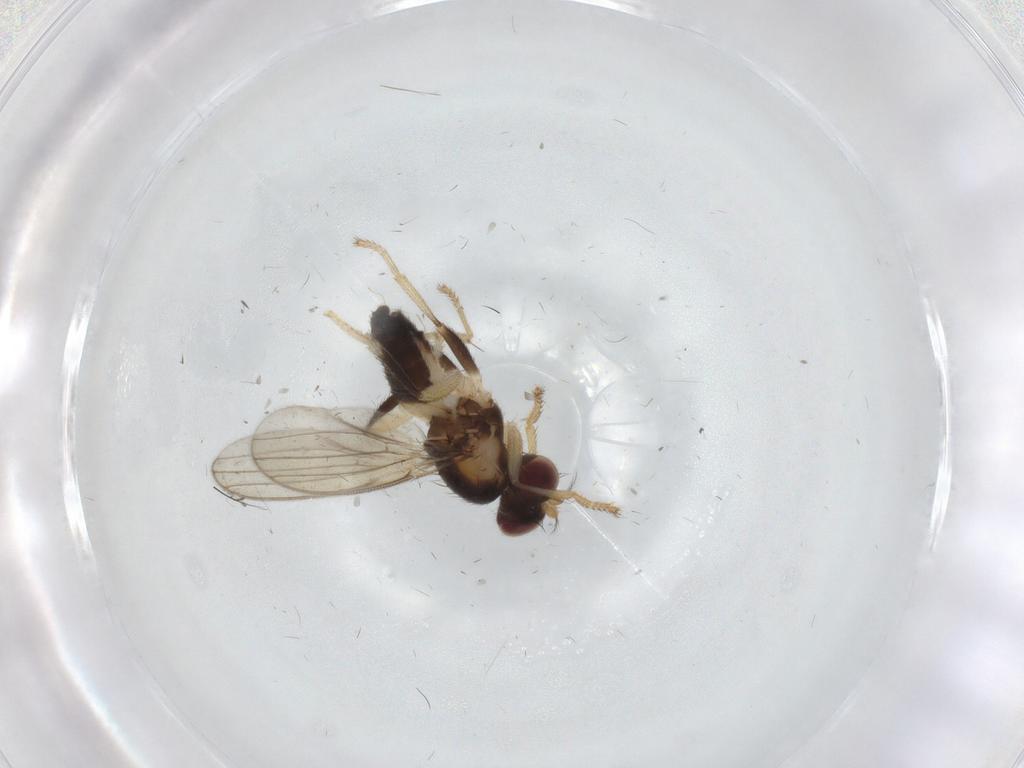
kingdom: Animalia
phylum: Arthropoda
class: Insecta
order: Diptera
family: Periscelididae
